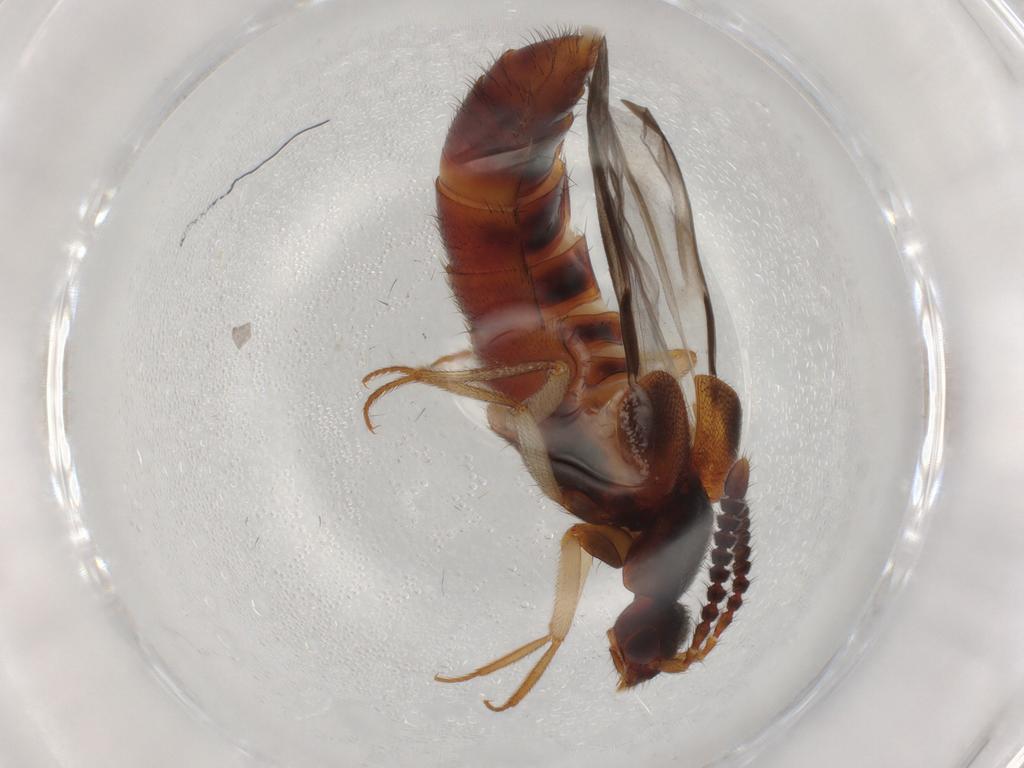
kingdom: Animalia
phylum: Arthropoda
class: Insecta
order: Coleoptera
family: Staphylinidae
